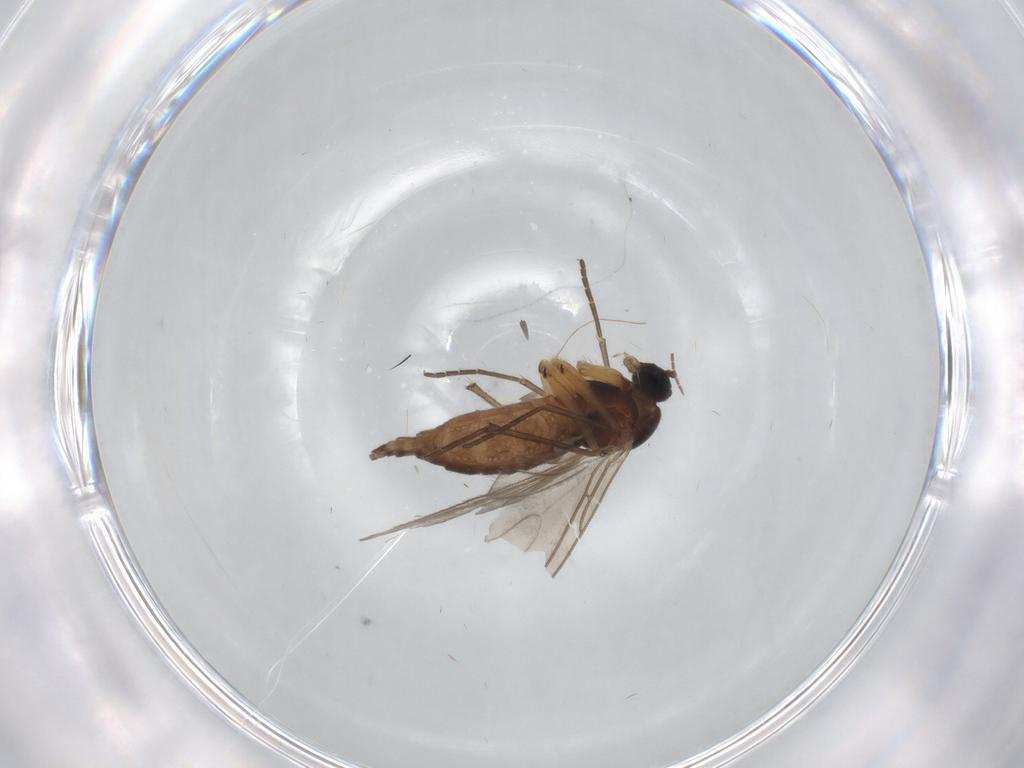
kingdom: Animalia
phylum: Arthropoda
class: Insecta
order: Diptera
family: Sciaridae
